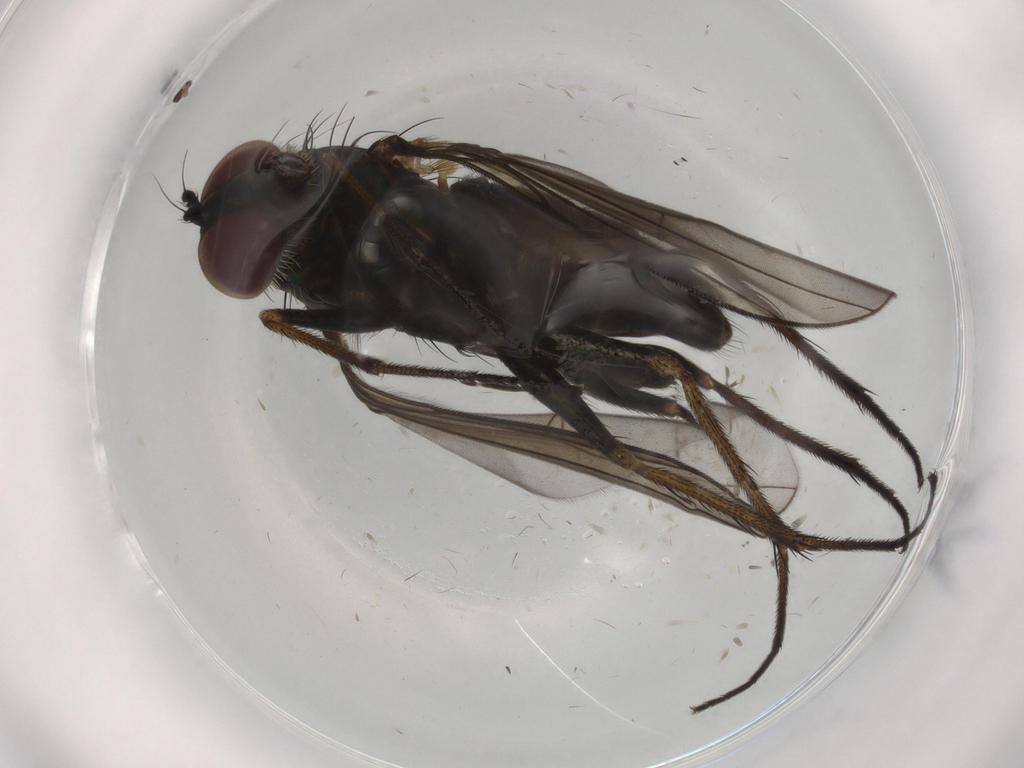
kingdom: Animalia
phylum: Arthropoda
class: Insecta
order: Diptera
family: Dolichopodidae
